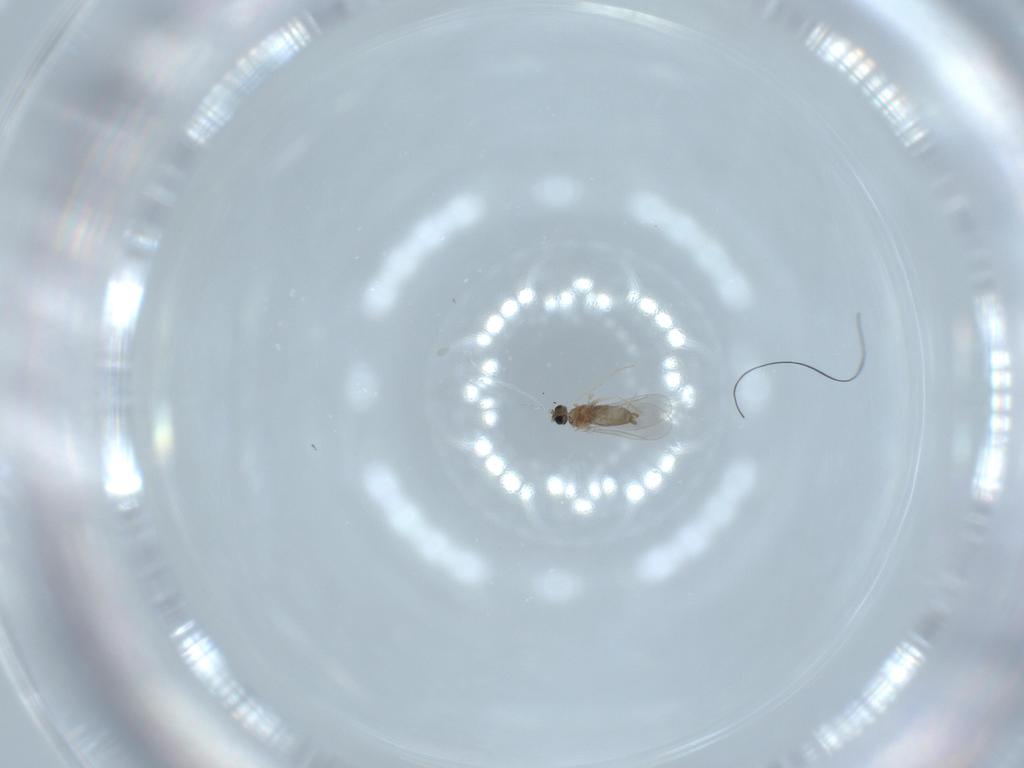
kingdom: Animalia
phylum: Arthropoda
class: Insecta
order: Diptera
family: Cecidomyiidae
